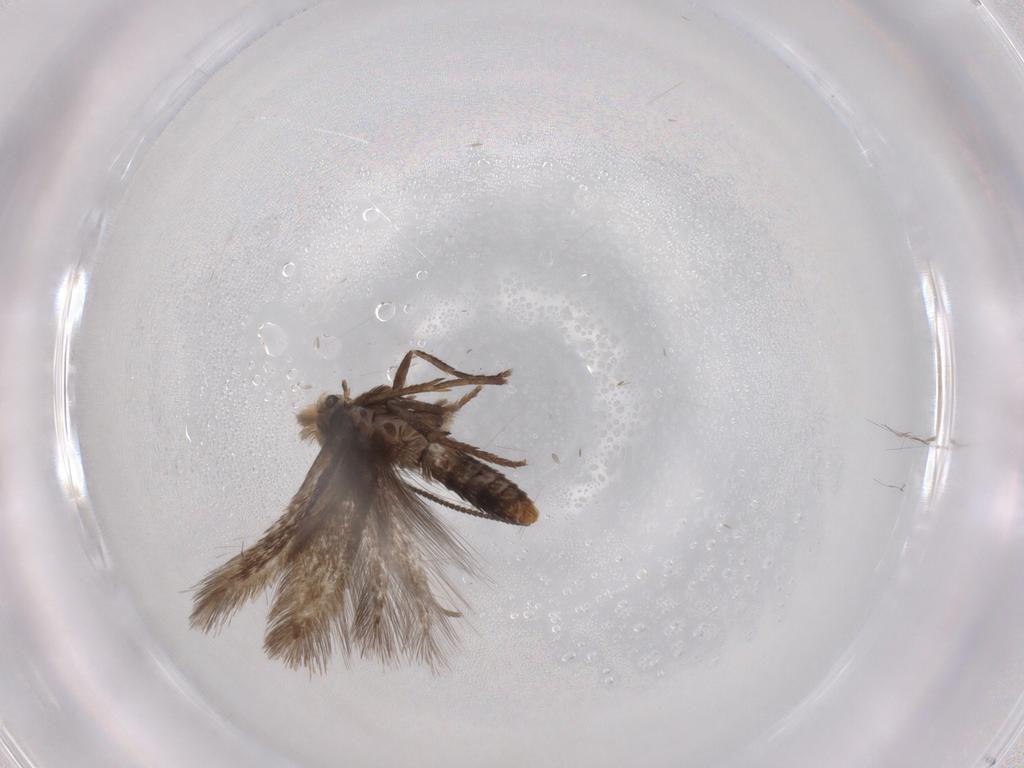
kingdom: Animalia
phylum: Arthropoda
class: Insecta
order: Lepidoptera
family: Nepticulidae
